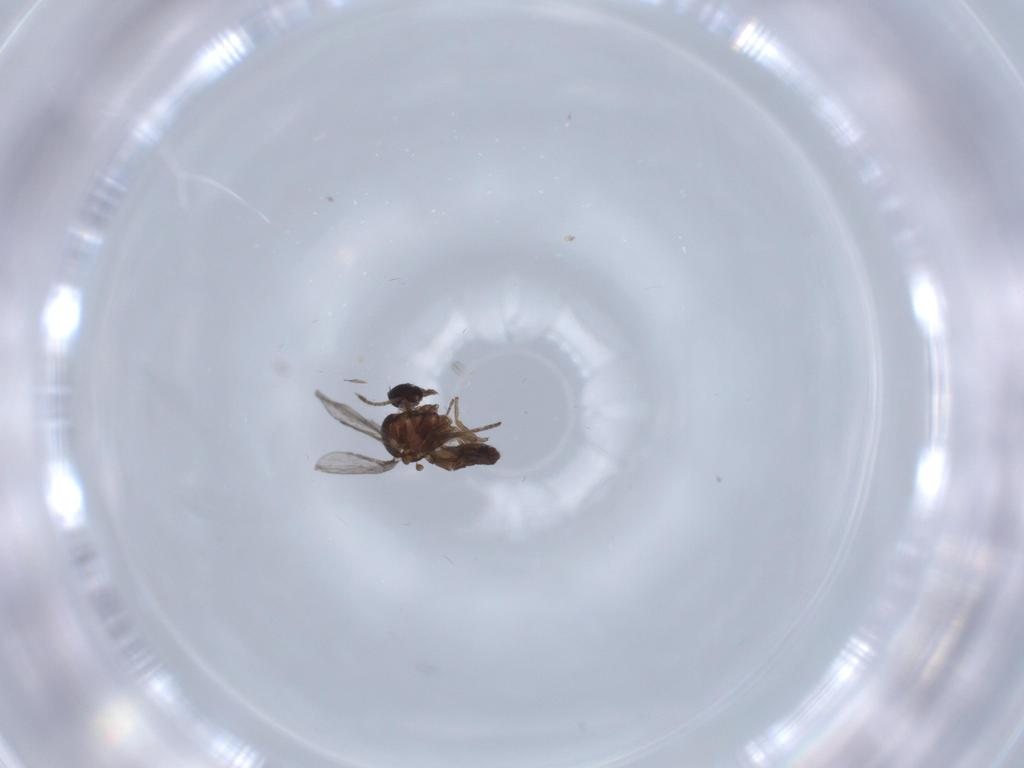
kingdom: Animalia
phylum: Arthropoda
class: Insecta
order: Diptera
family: Cecidomyiidae
